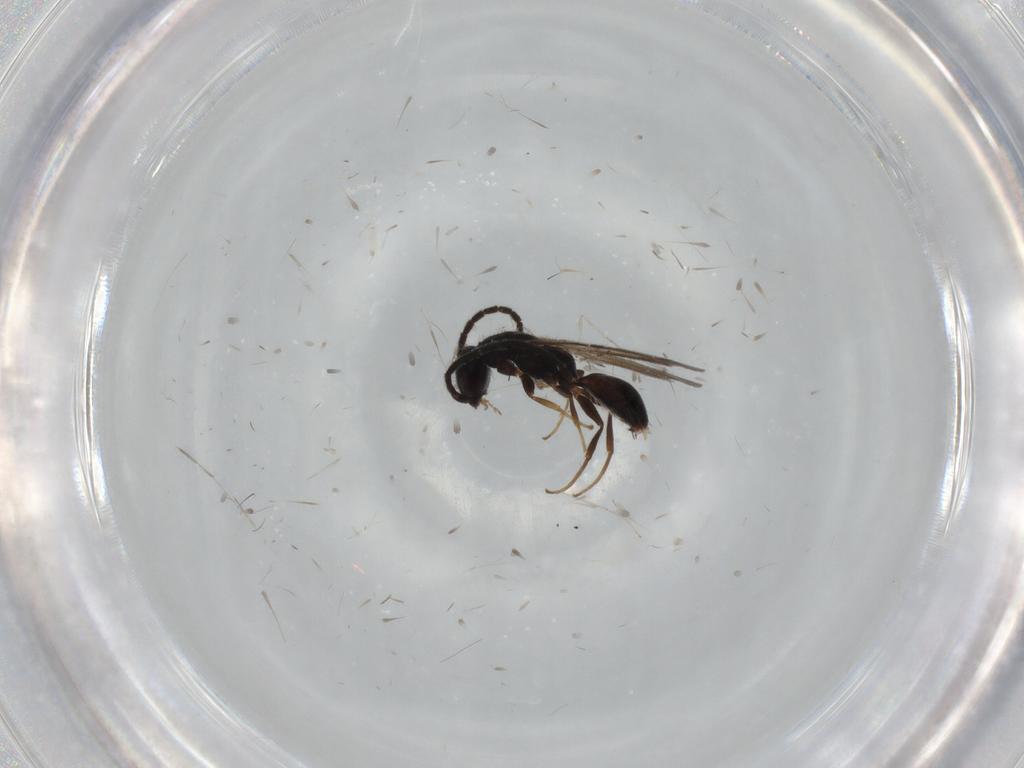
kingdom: Animalia
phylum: Arthropoda
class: Insecta
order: Hymenoptera
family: Bethylidae
